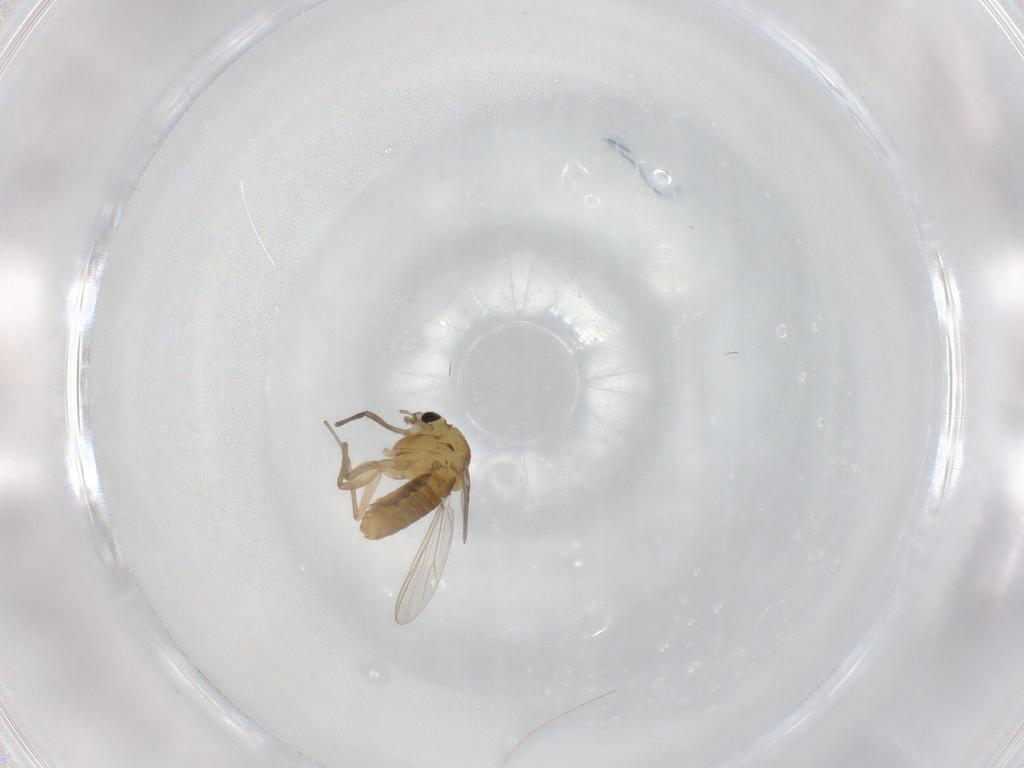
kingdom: Animalia
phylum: Arthropoda
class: Insecta
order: Diptera
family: Chironomidae
